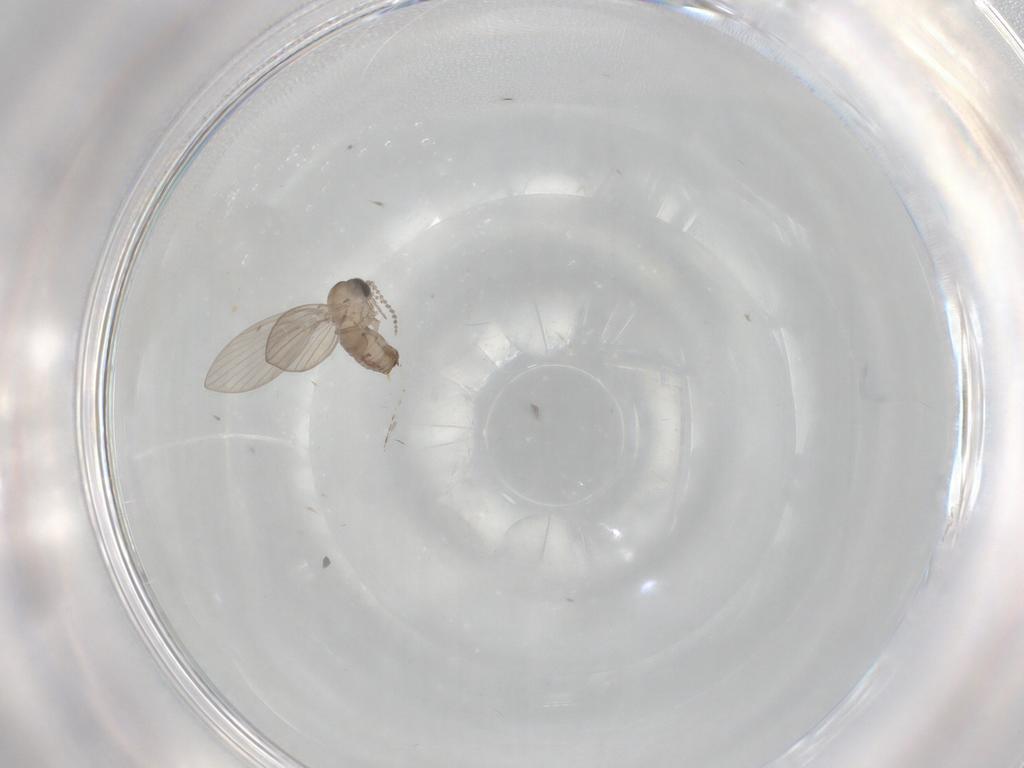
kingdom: Animalia
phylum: Arthropoda
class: Insecta
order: Diptera
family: Psychodidae
